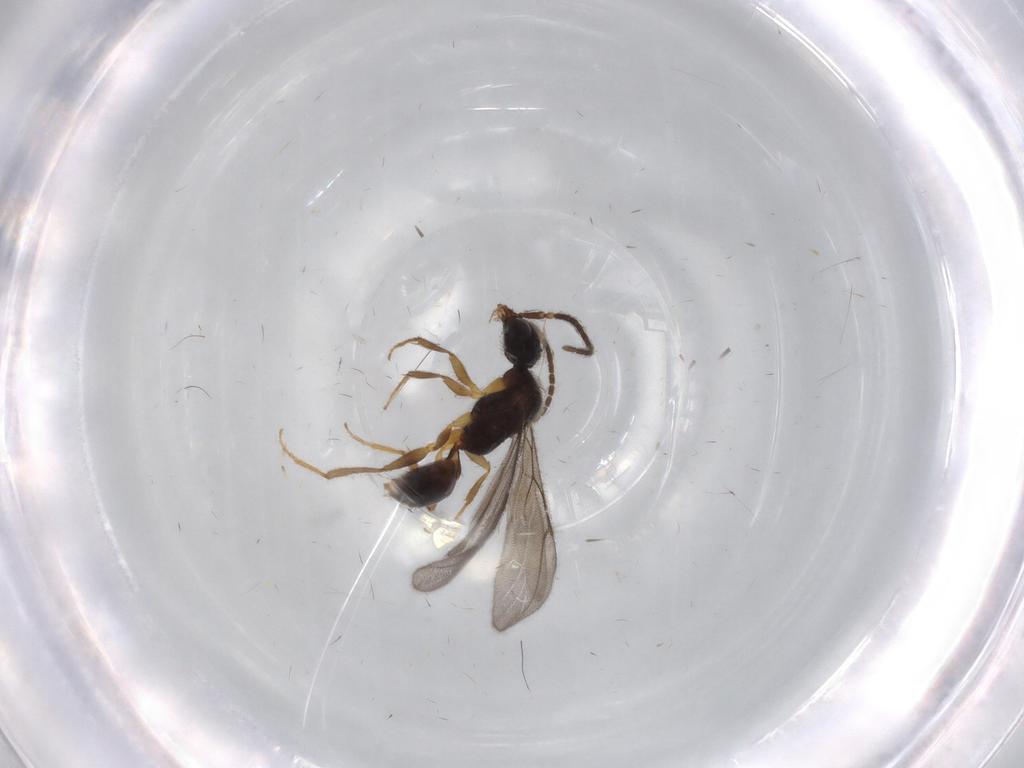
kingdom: Animalia
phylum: Arthropoda
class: Insecta
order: Hymenoptera
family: Bethylidae
